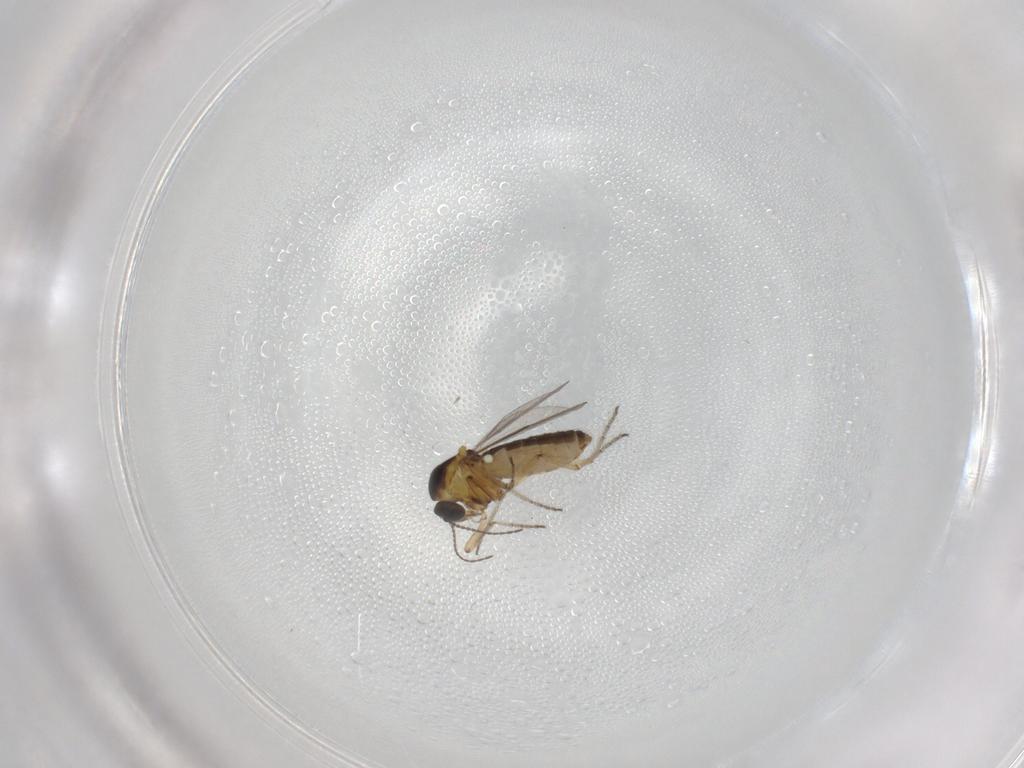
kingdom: Animalia
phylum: Arthropoda
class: Insecta
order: Diptera
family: Ceratopogonidae
